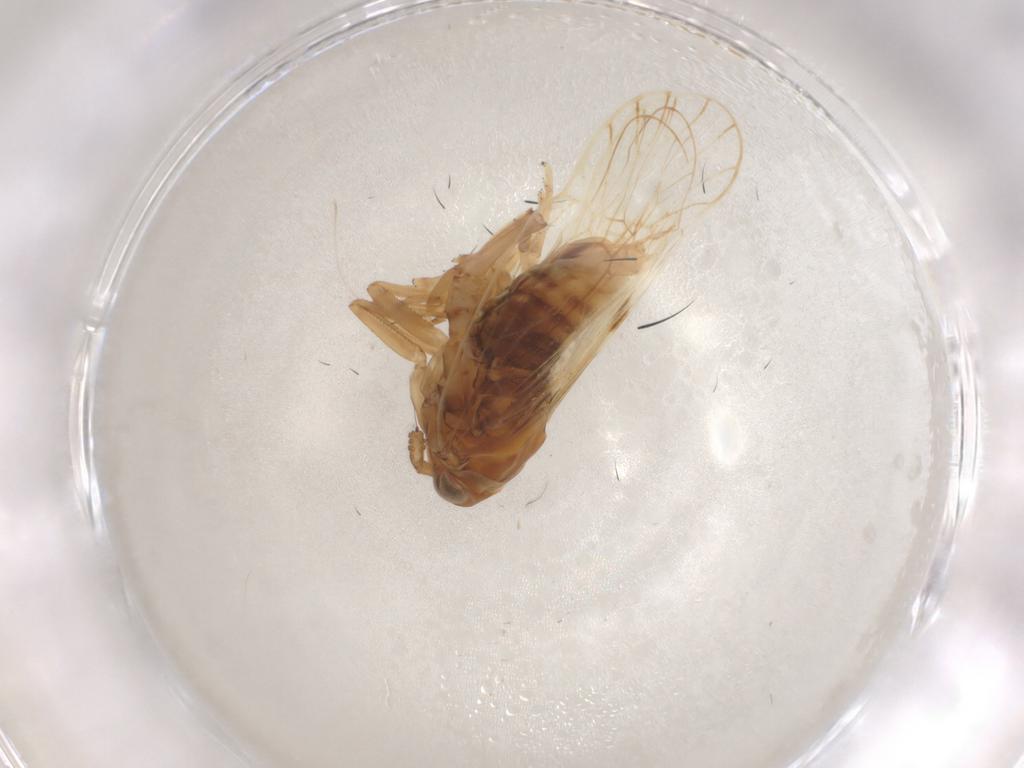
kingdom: Animalia
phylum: Arthropoda
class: Insecta
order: Hemiptera
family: Delphacidae
